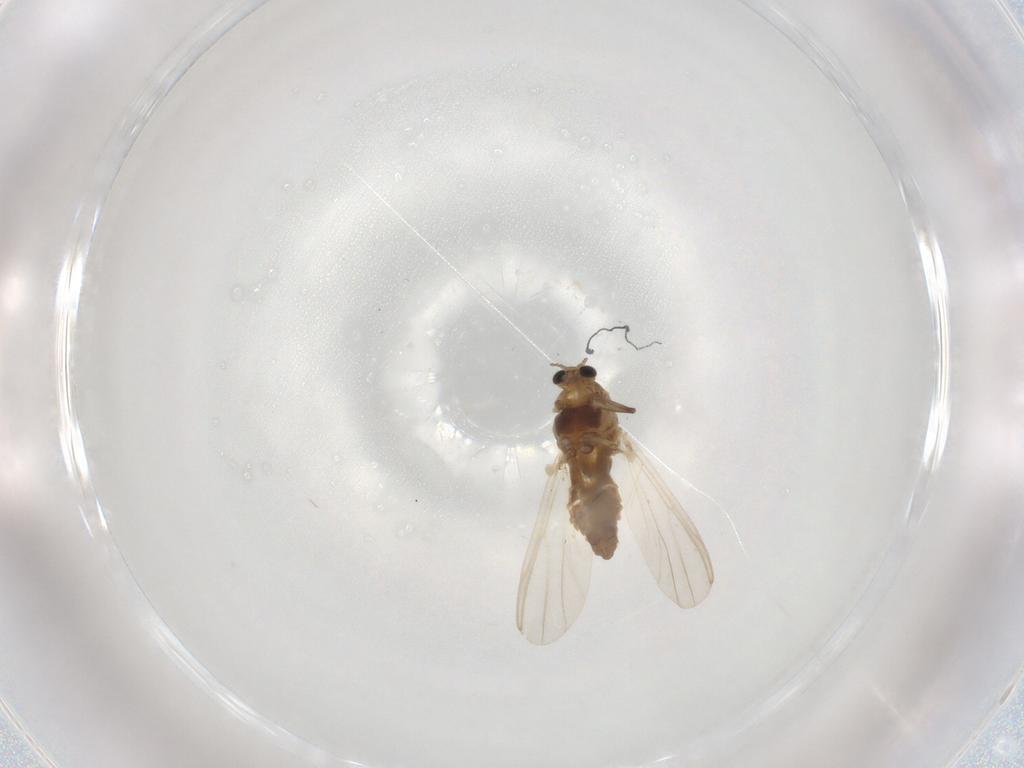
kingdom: Animalia
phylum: Arthropoda
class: Insecta
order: Diptera
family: Chironomidae
